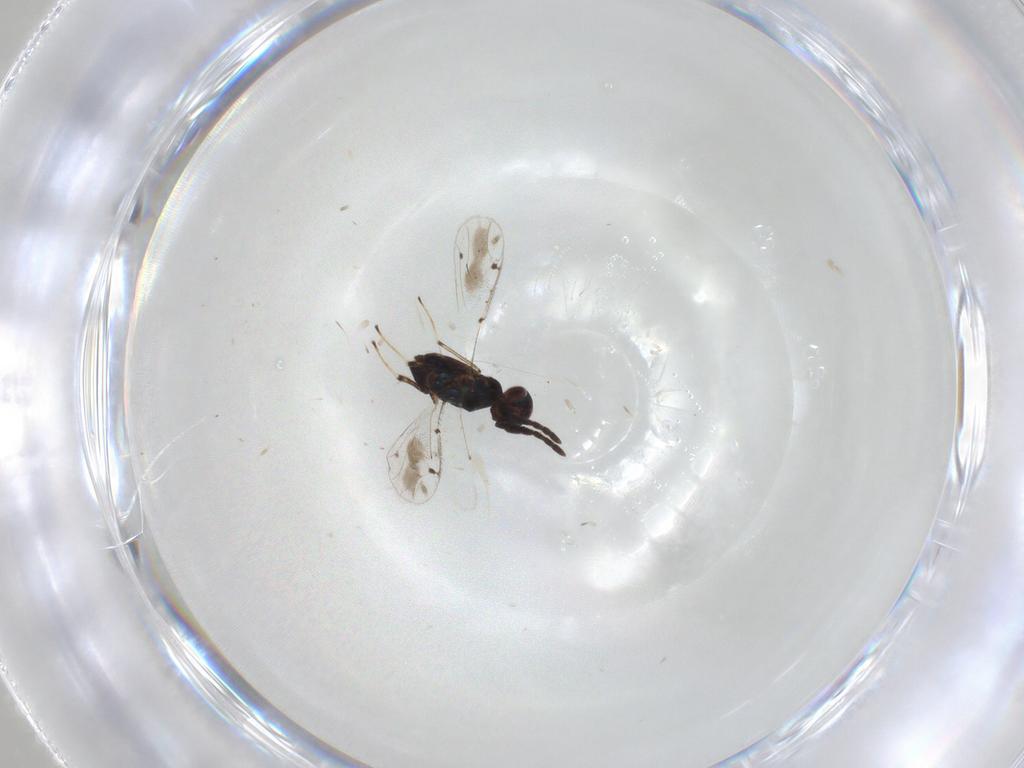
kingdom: Animalia
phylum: Arthropoda
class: Insecta
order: Hymenoptera
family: Eulophidae
